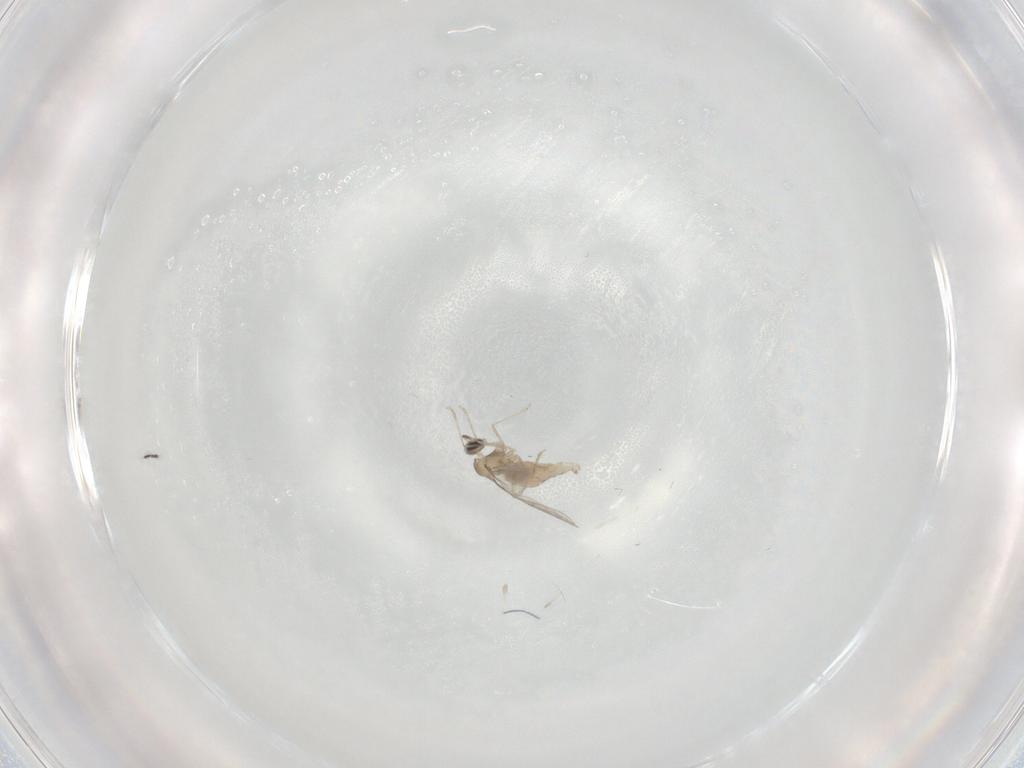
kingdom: Animalia
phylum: Arthropoda
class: Insecta
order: Diptera
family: Cecidomyiidae
